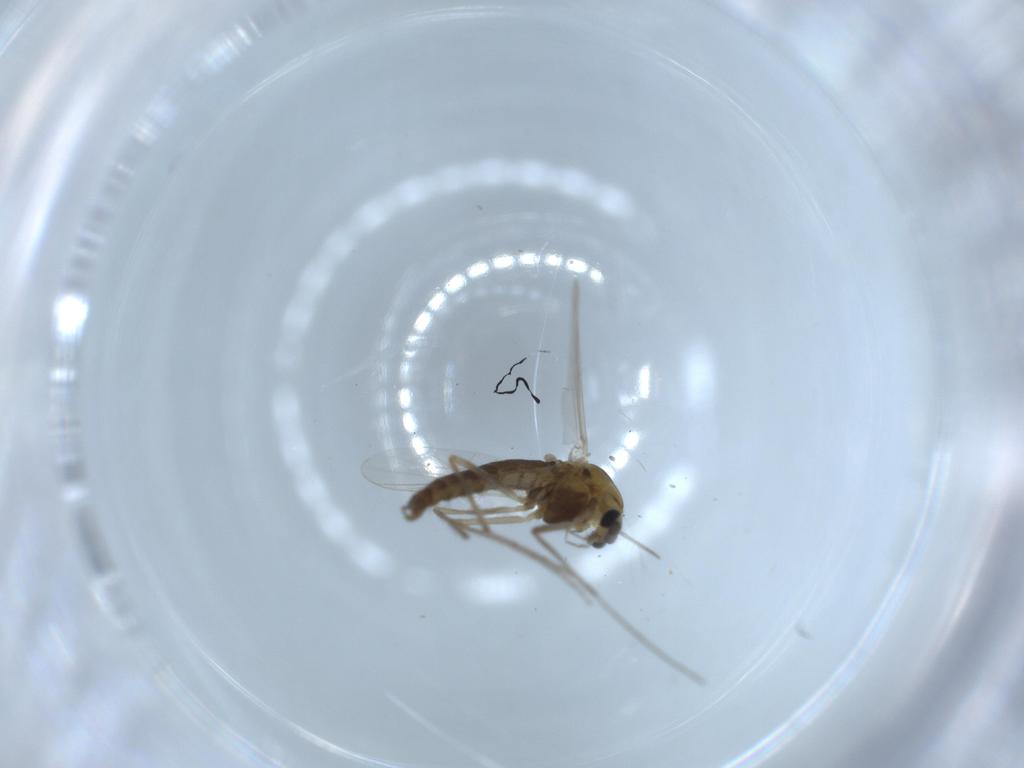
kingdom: Animalia
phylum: Arthropoda
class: Insecta
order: Diptera
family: Chironomidae
